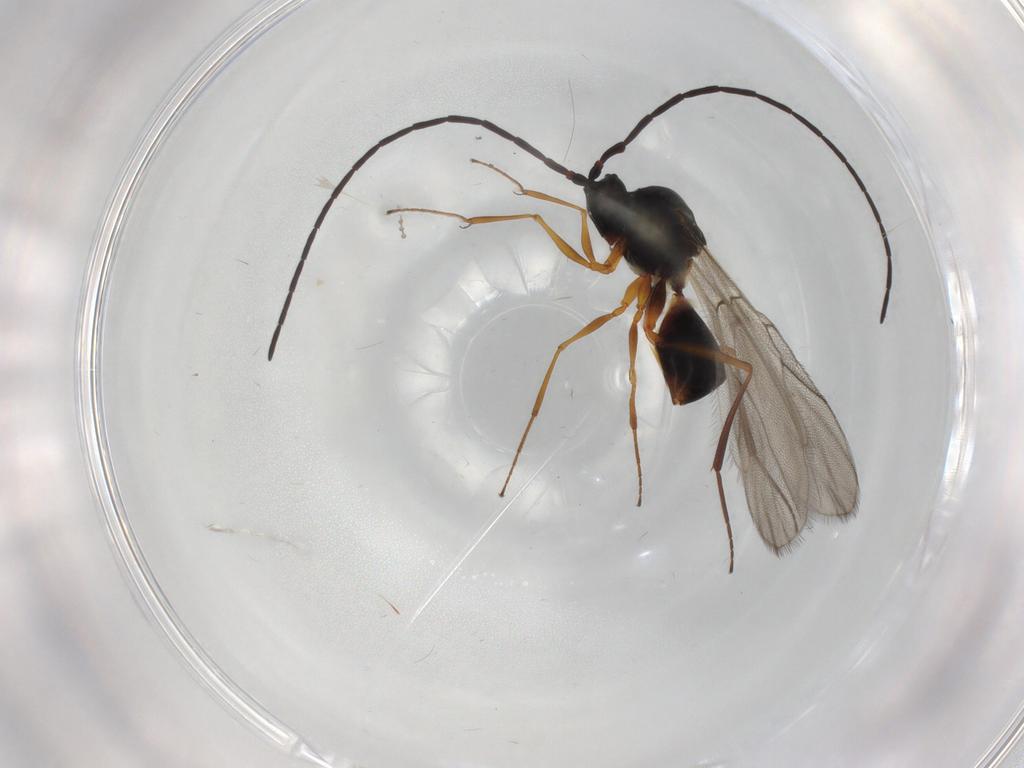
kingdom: Animalia
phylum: Arthropoda
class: Insecta
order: Hymenoptera
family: Figitidae
